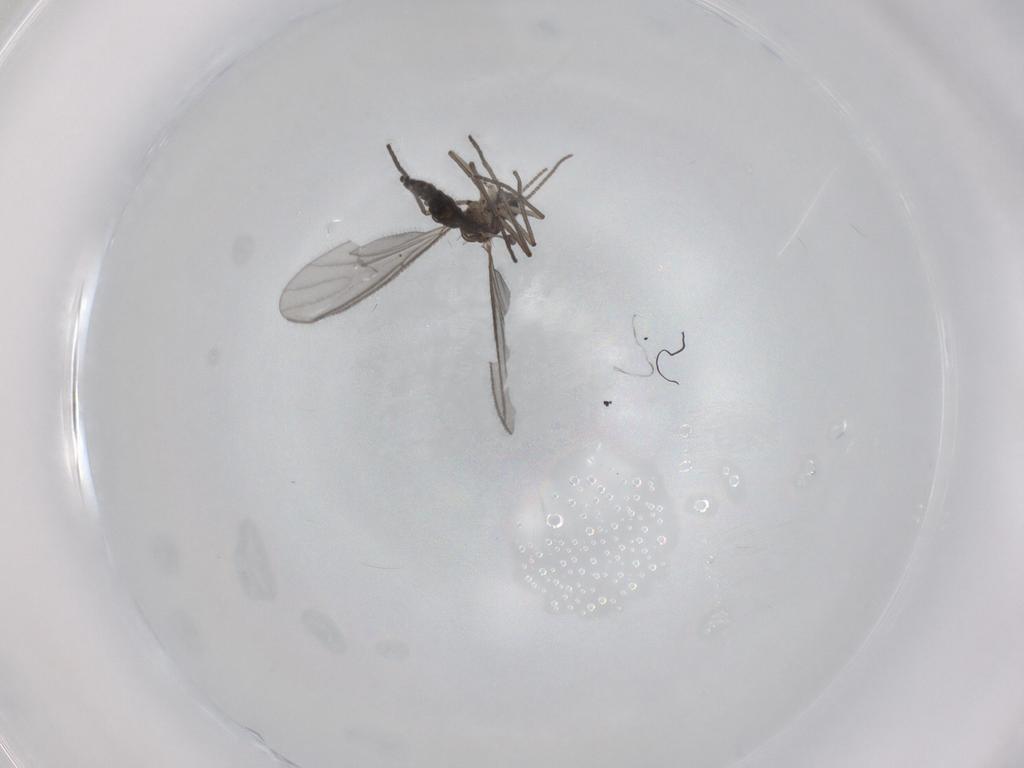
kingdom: Animalia
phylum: Arthropoda
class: Insecta
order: Diptera
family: Sciaridae
